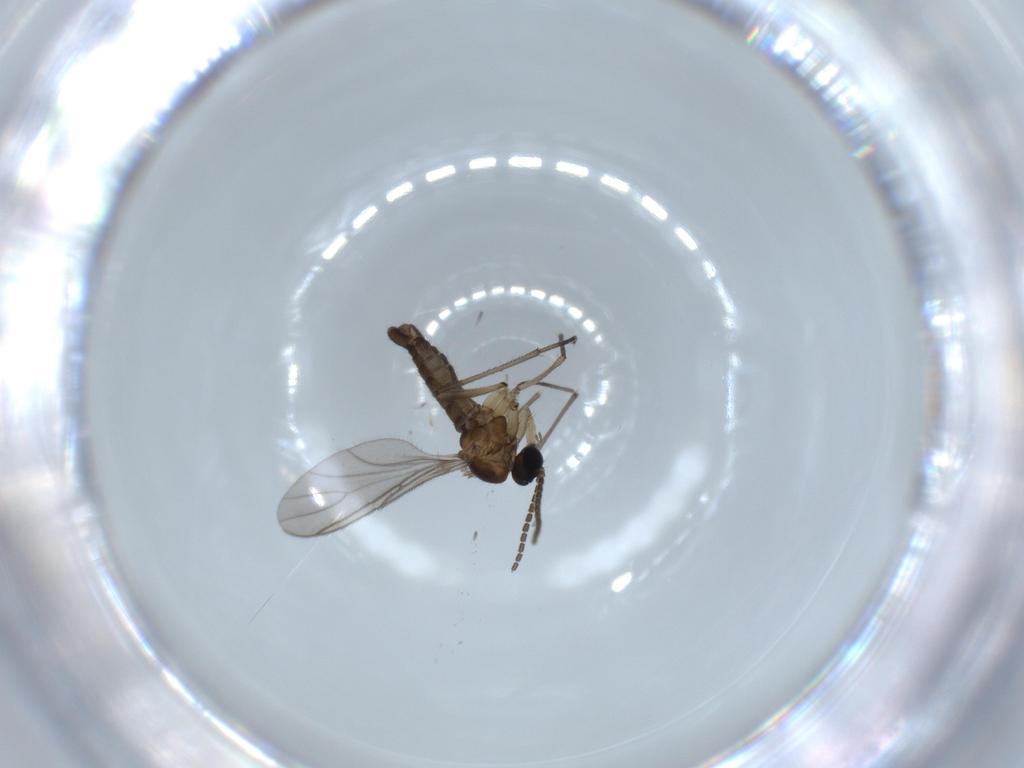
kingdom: Animalia
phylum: Arthropoda
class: Insecta
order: Diptera
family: Sciaridae
